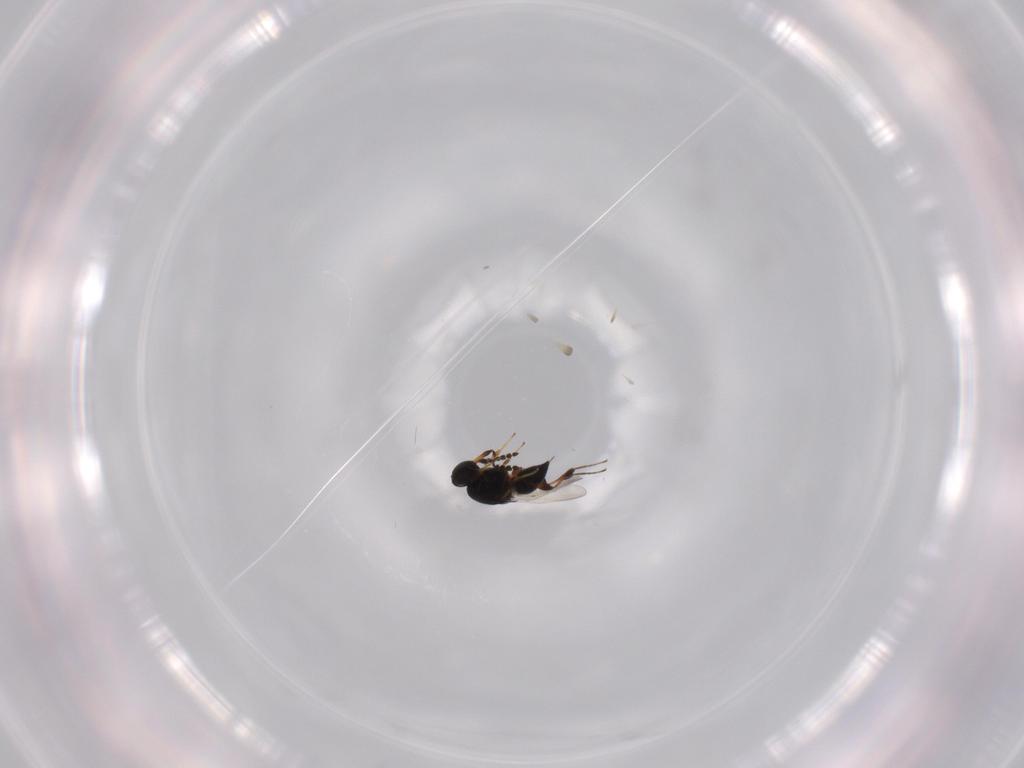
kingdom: Animalia
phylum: Arthropoda
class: Insecta
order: Hymenoptera
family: Platygastridae
